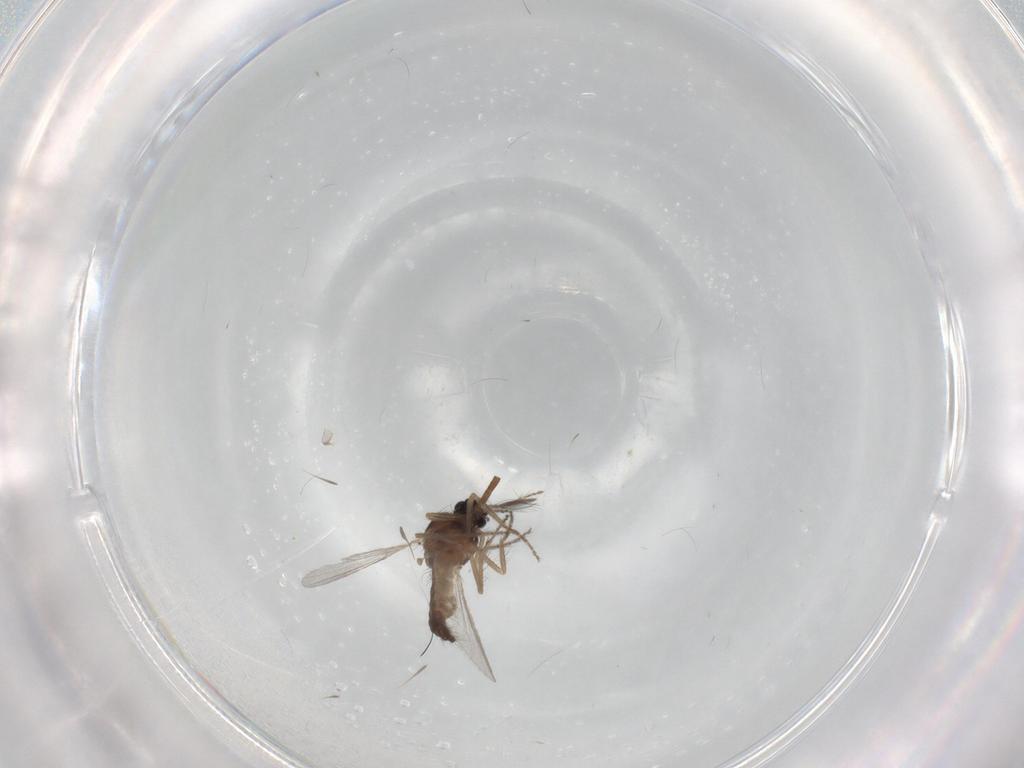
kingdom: Animalia
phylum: Arthropoda
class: Insecta
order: Diptera
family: Ceratopogonidae
